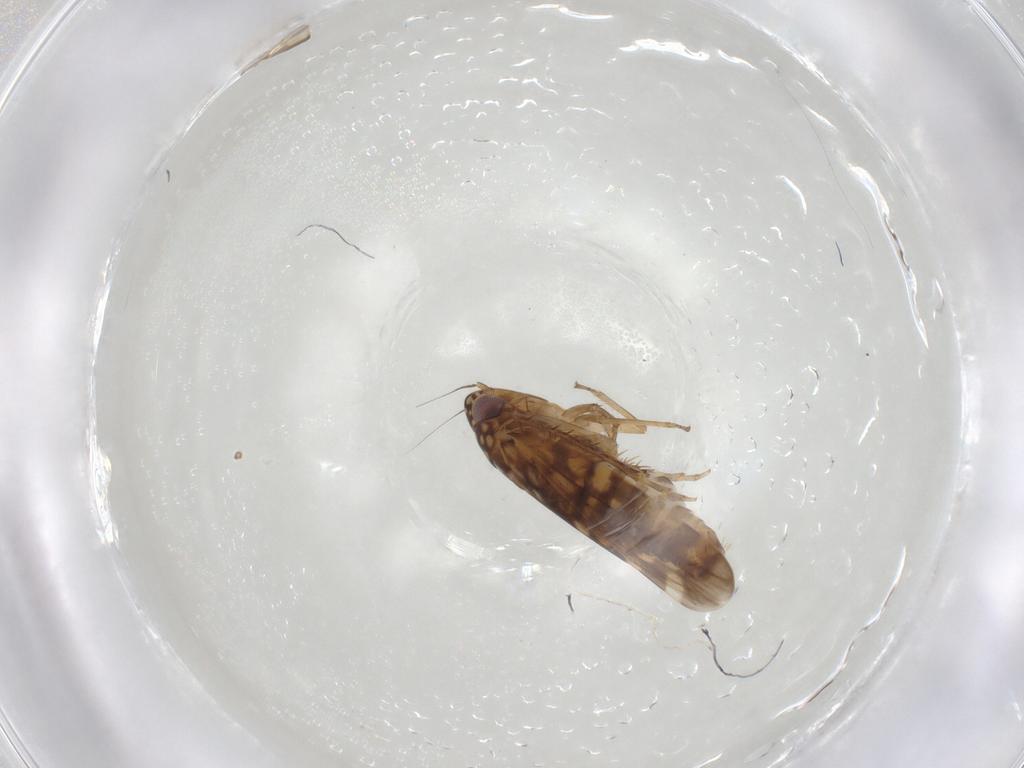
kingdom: Animalia
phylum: Arthropoda
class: Insecta
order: Hemiptera
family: Cicadellidae
